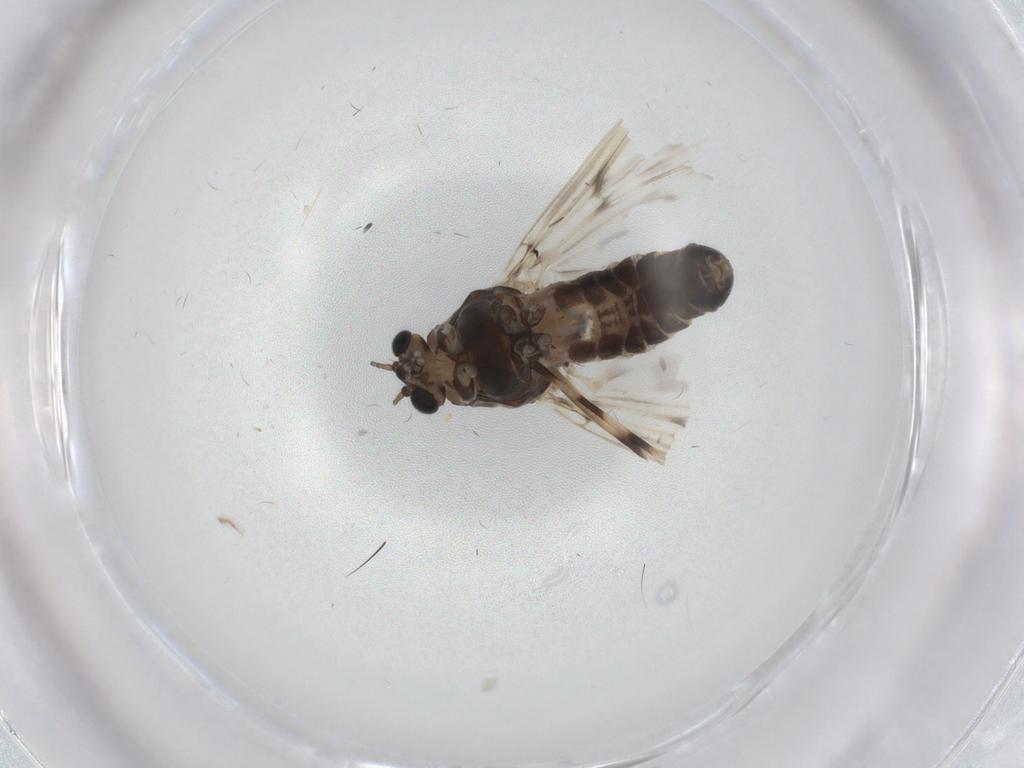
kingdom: Animalia
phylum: Arthropoda
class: Insecta
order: Diptera
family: Chironomidae
